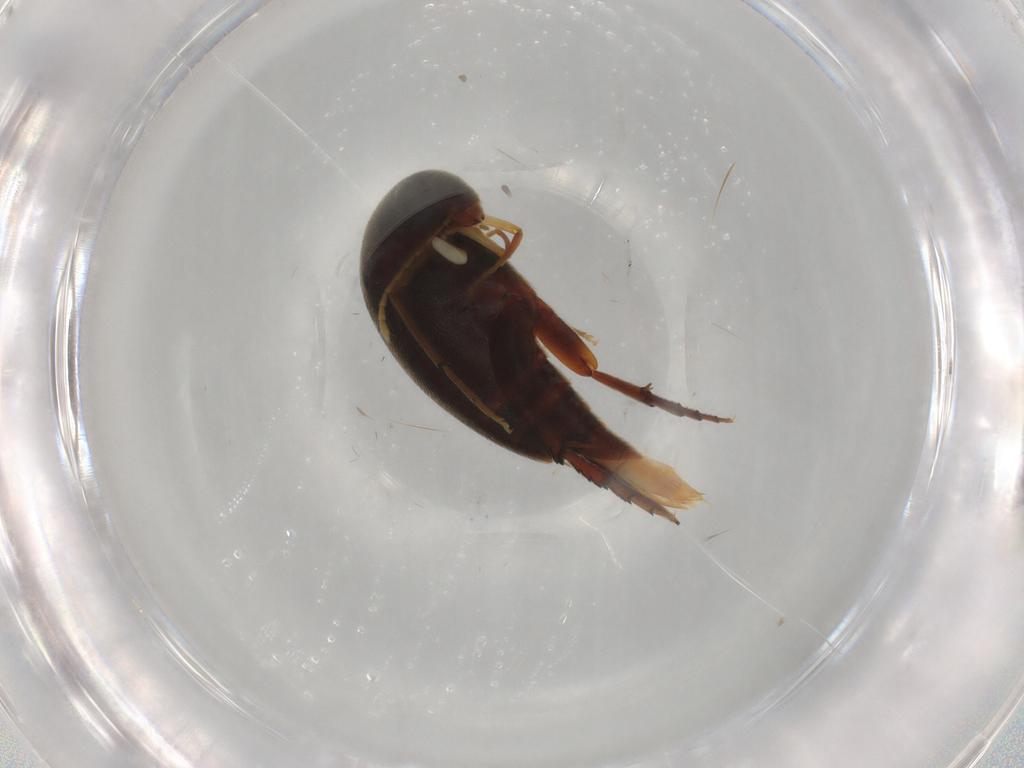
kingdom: Animalia
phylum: Arthropoda
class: Insecta
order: Coleoptera
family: Mordellidae
